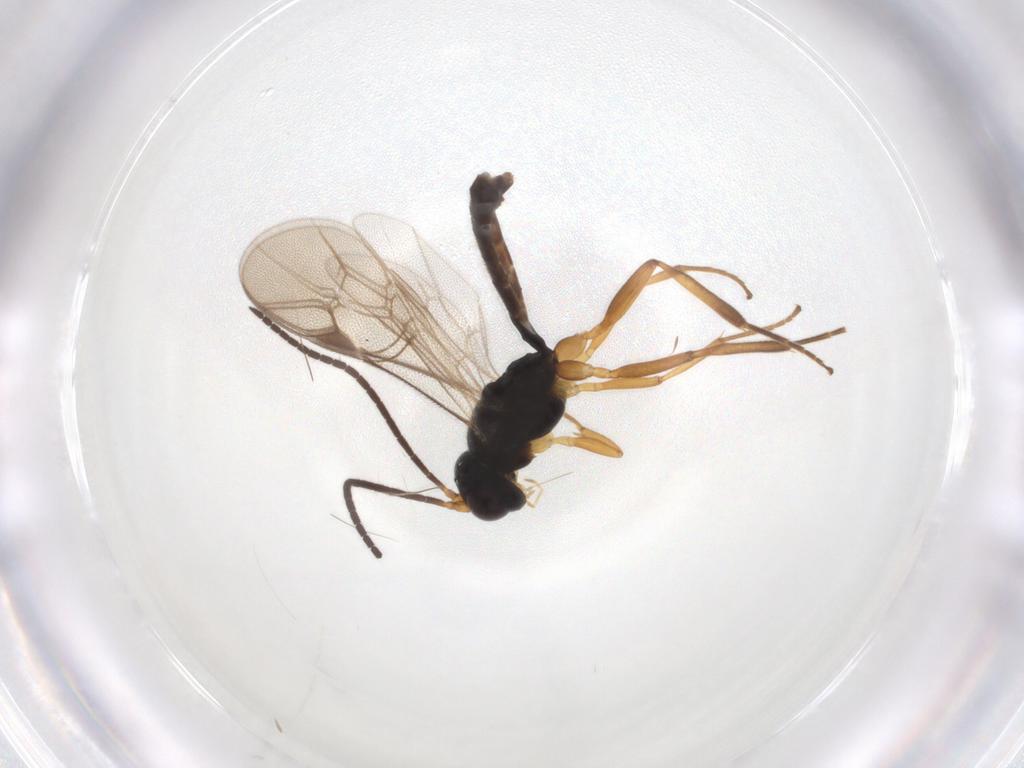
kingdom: Animalia
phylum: Arthropoda
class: Insecta
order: Hymenoptera
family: Ichneumonidae
